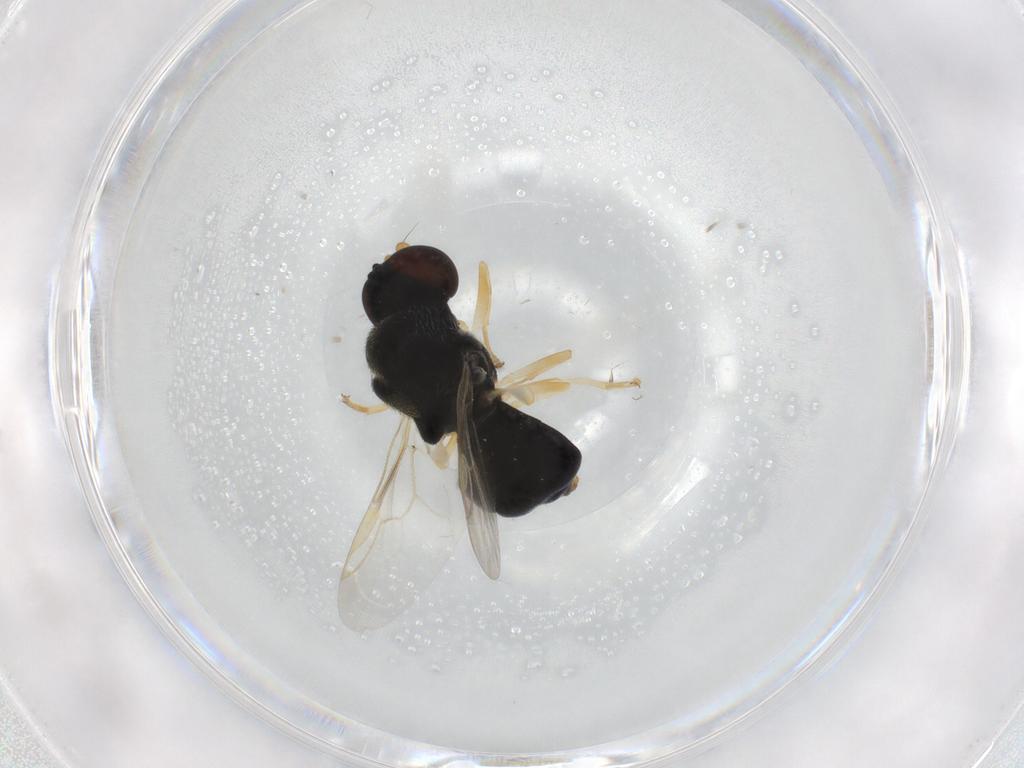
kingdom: Animalia
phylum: Arthropoda
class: Insecta
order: Diptera
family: Stratiomyidae
